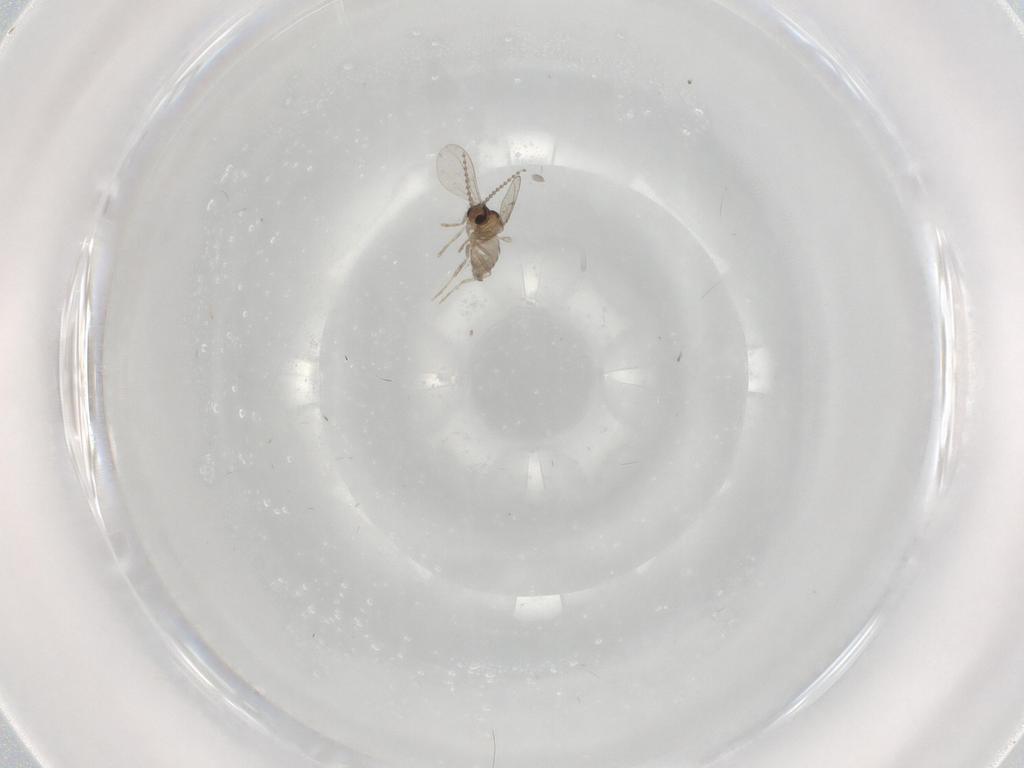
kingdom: Animalia
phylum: Arthropoda
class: Insecta
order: Diptera
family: Cecidomyiidae
